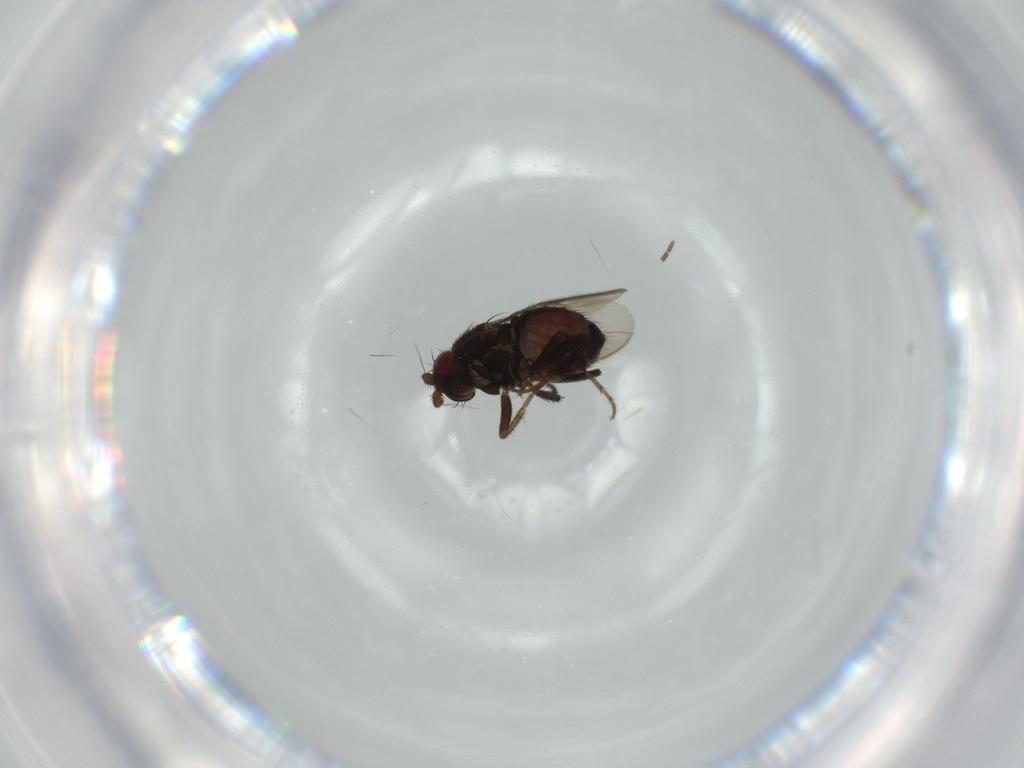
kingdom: Animalia
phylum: Arthropoda
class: Insecta
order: Diptera
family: Sphaeroceridae
